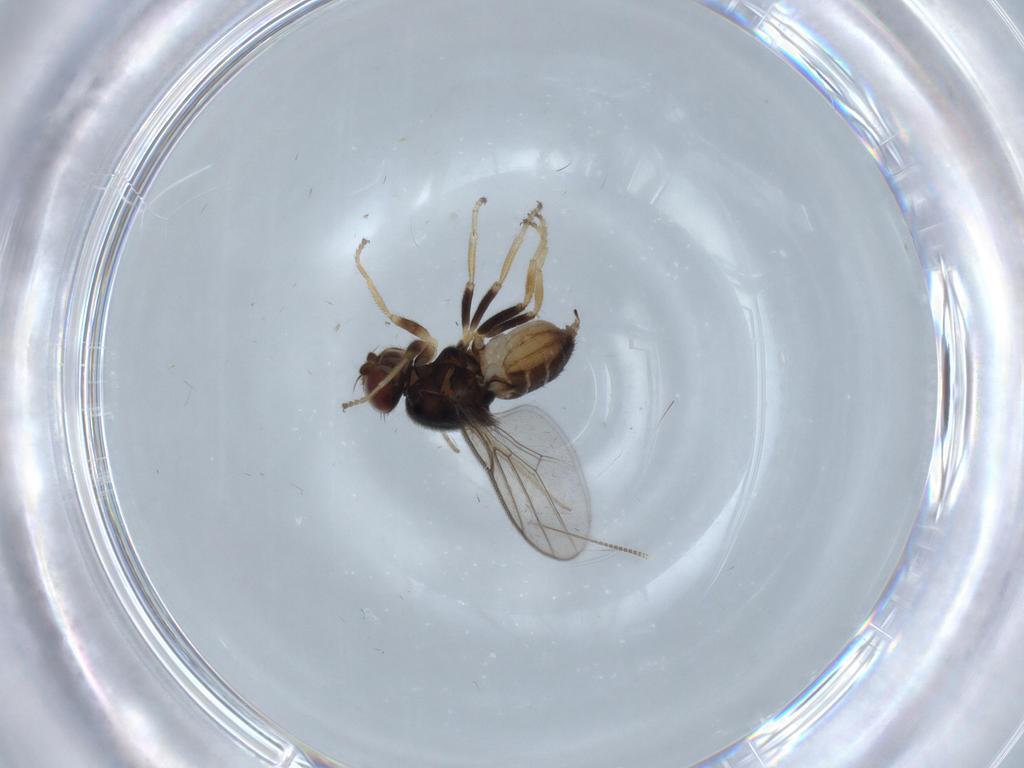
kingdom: Animalia
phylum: Arthropoda
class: Insecta
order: Diptera
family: Chloropidae
